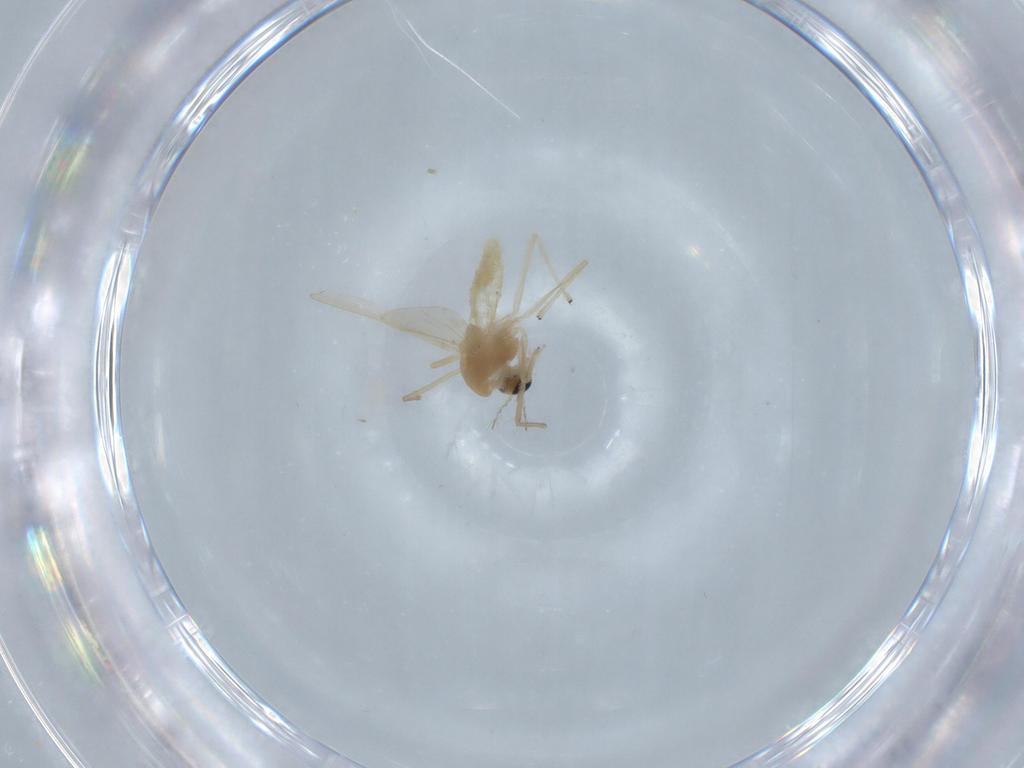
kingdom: Animalia
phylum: Arthropoda
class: Insecta
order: Diptera
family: Chironomidae
